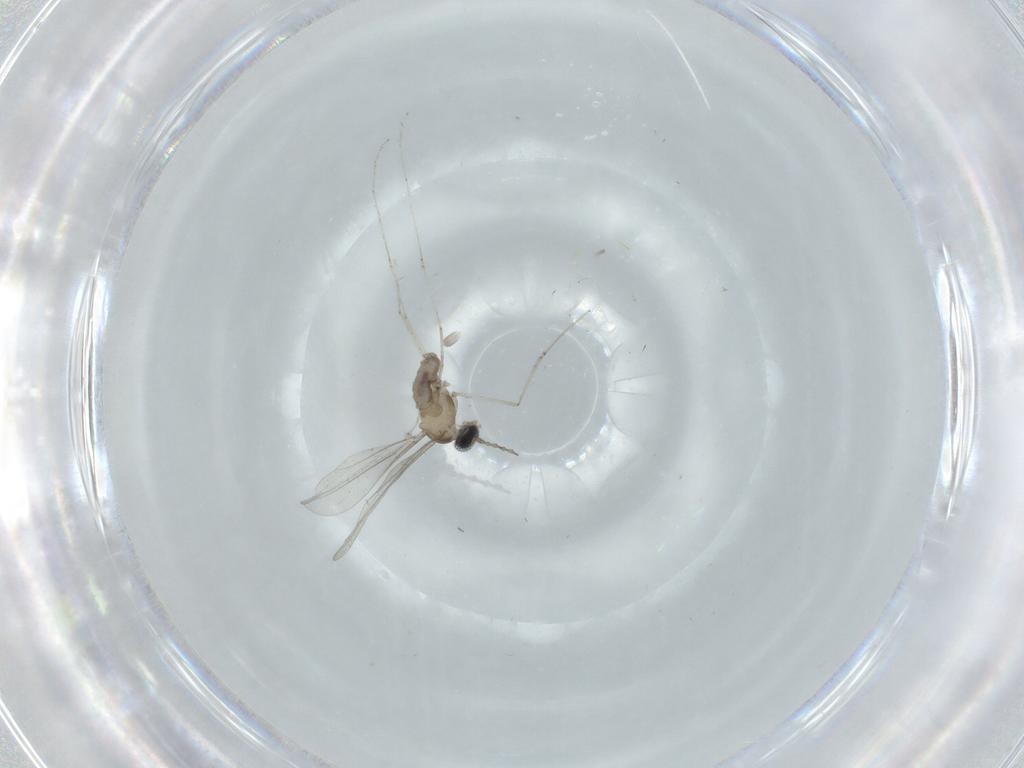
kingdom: Animalia
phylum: Arthropoda
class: Insecta
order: Diptera
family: Cecidomyiidae
